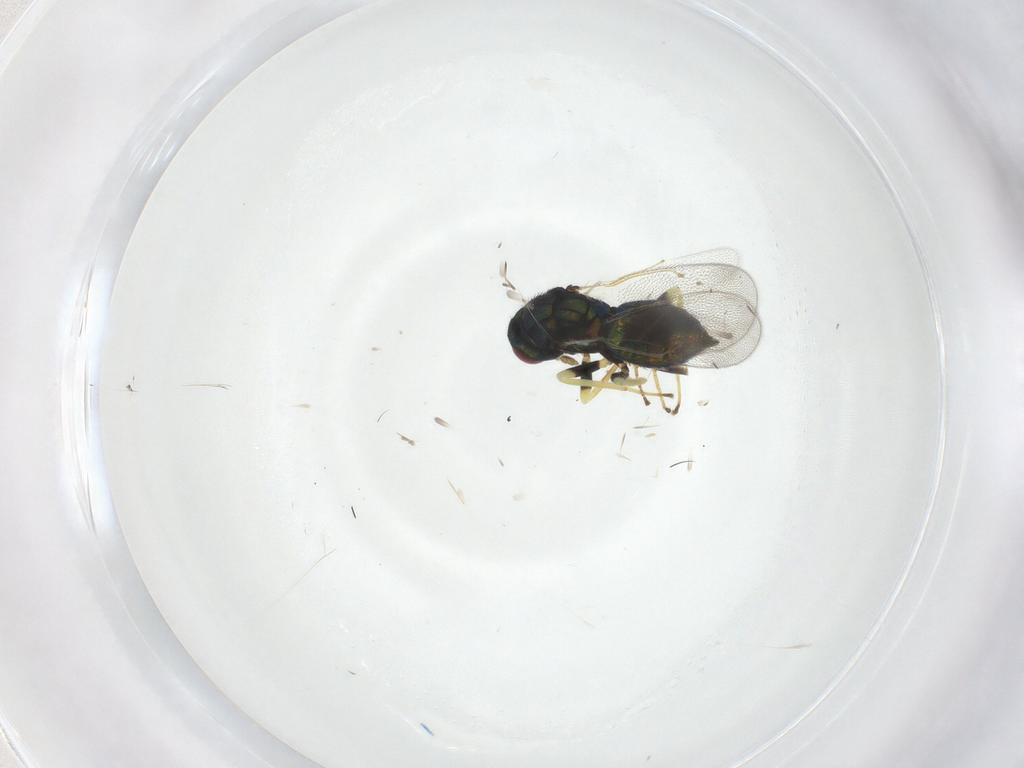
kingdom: Animalia
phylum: Arthropoda
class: Insecta
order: Hymenoptera
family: Eulophidae
